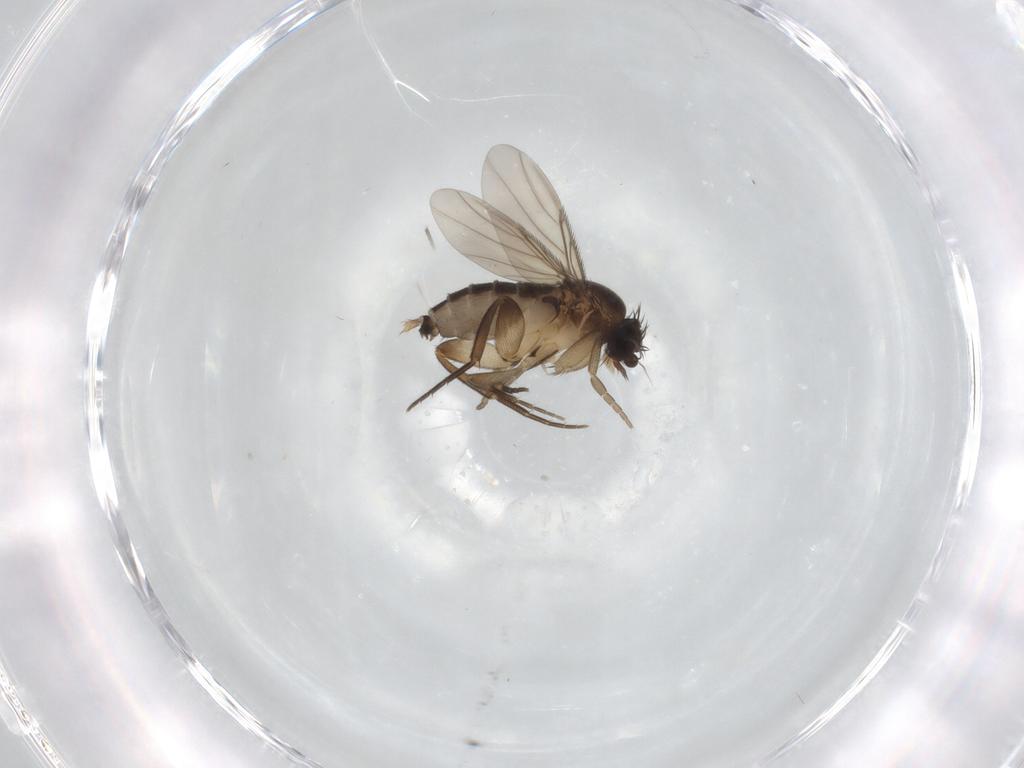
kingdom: Animalia
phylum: Arthropoda
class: Insecta
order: Diptera
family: Phoridae
